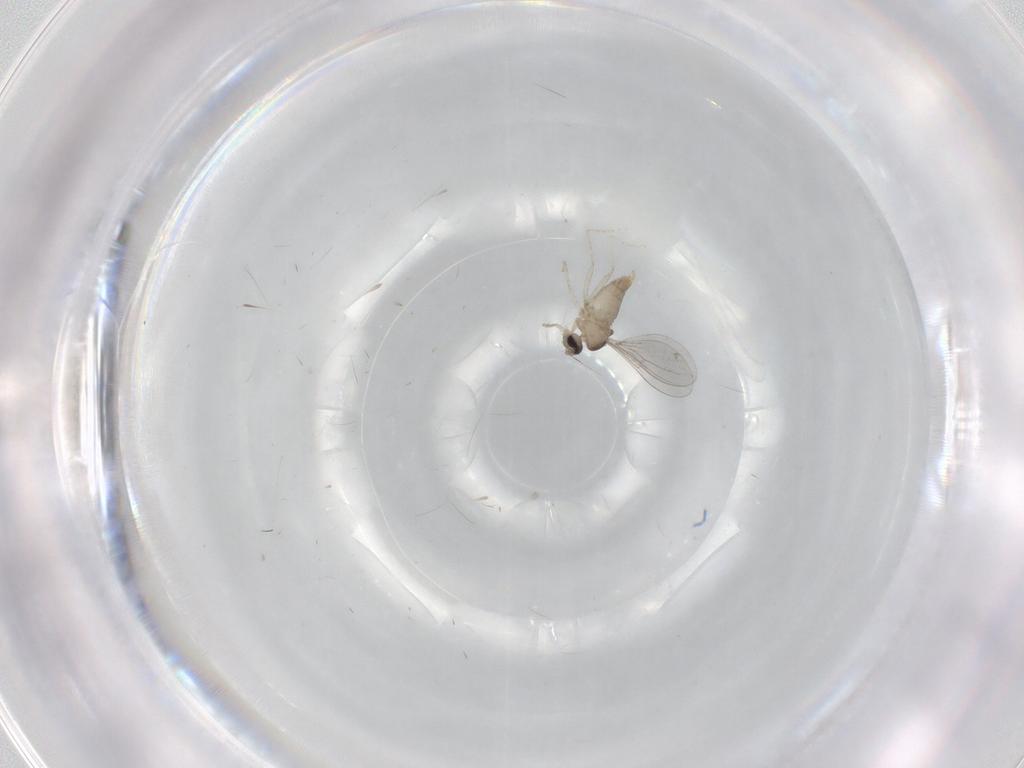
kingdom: Animalia
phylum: Arthropoda
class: Insecta
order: Diptera
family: Cecidomyiidae
